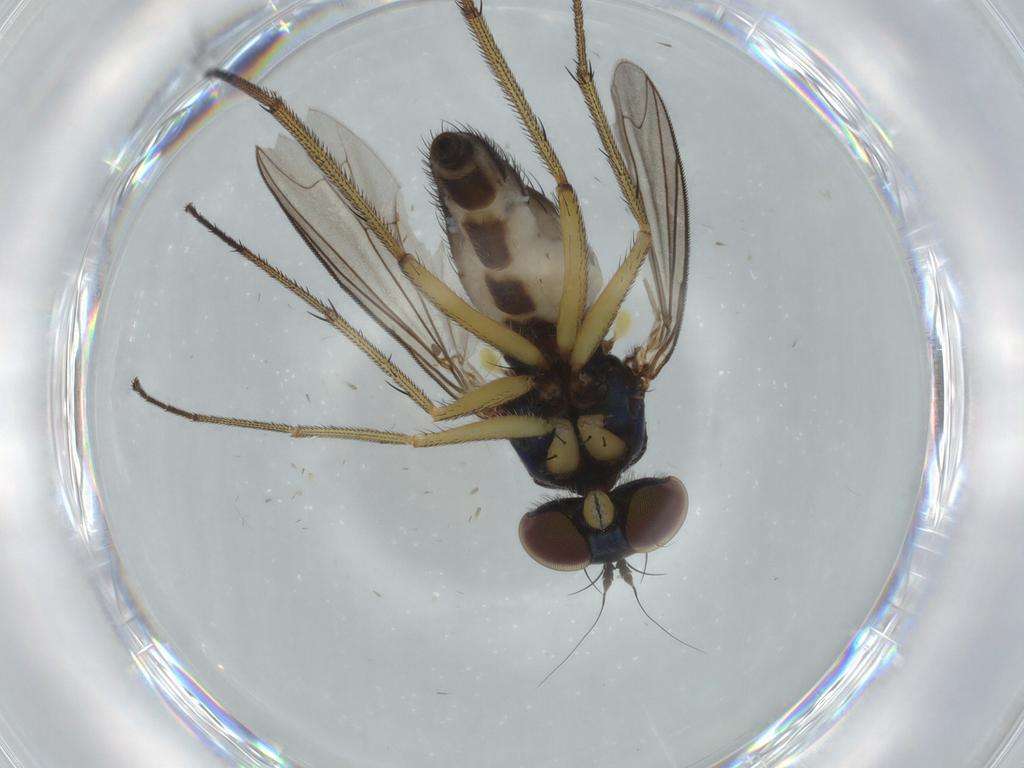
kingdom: Animalia
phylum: Arthropoda
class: Insecta
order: Diptera
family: Dolichopodidae
